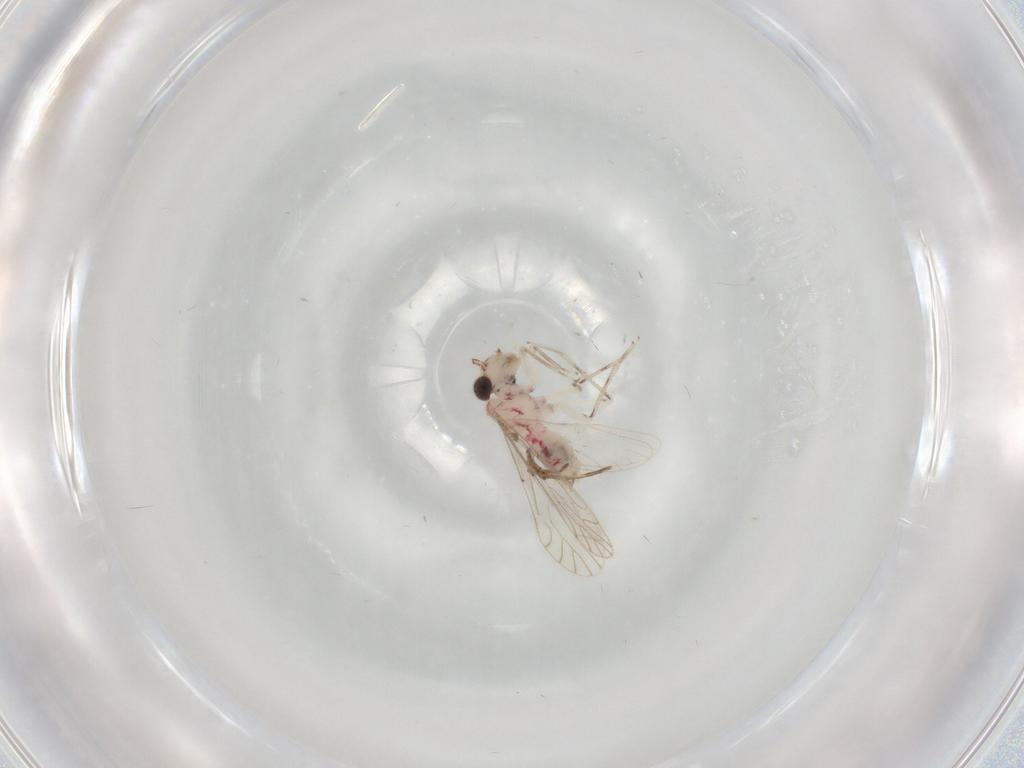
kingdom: Animalia
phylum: Arthropoda
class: Insecta
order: Psocodea
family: Caeciliusidae
